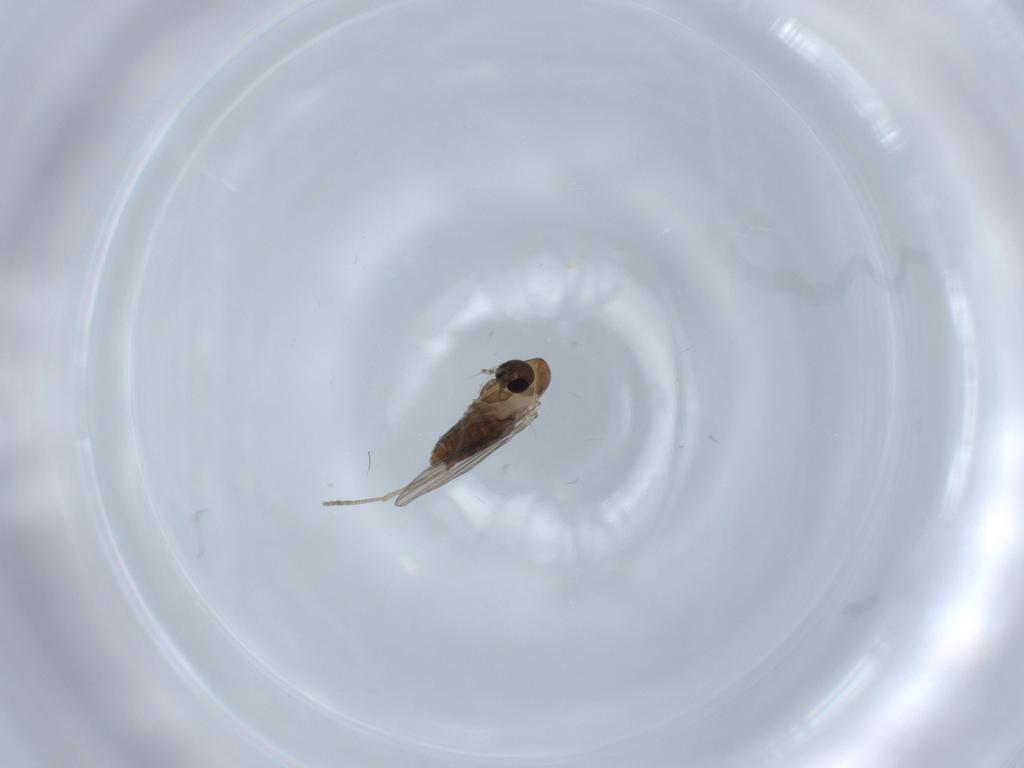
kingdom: Animalia
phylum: Arthropoda
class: Insecta
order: Diptera
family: Psychodidae
